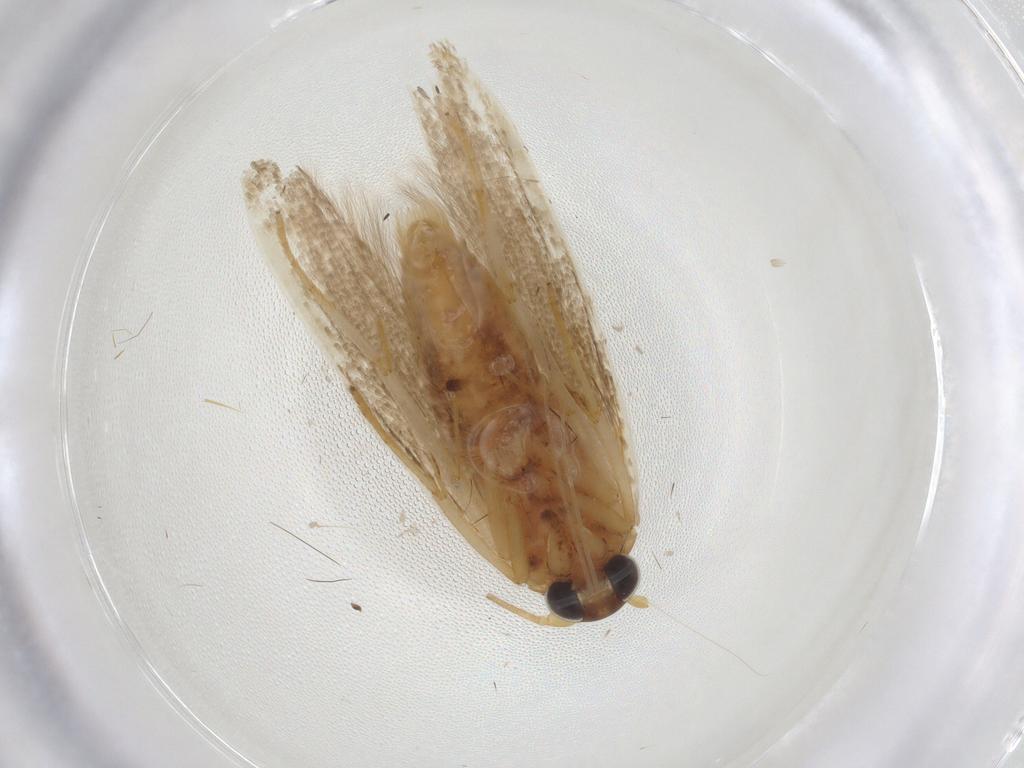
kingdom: Animalia
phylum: Arthropoda
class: Insecta
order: Lepidoptera
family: Blastobasidae
